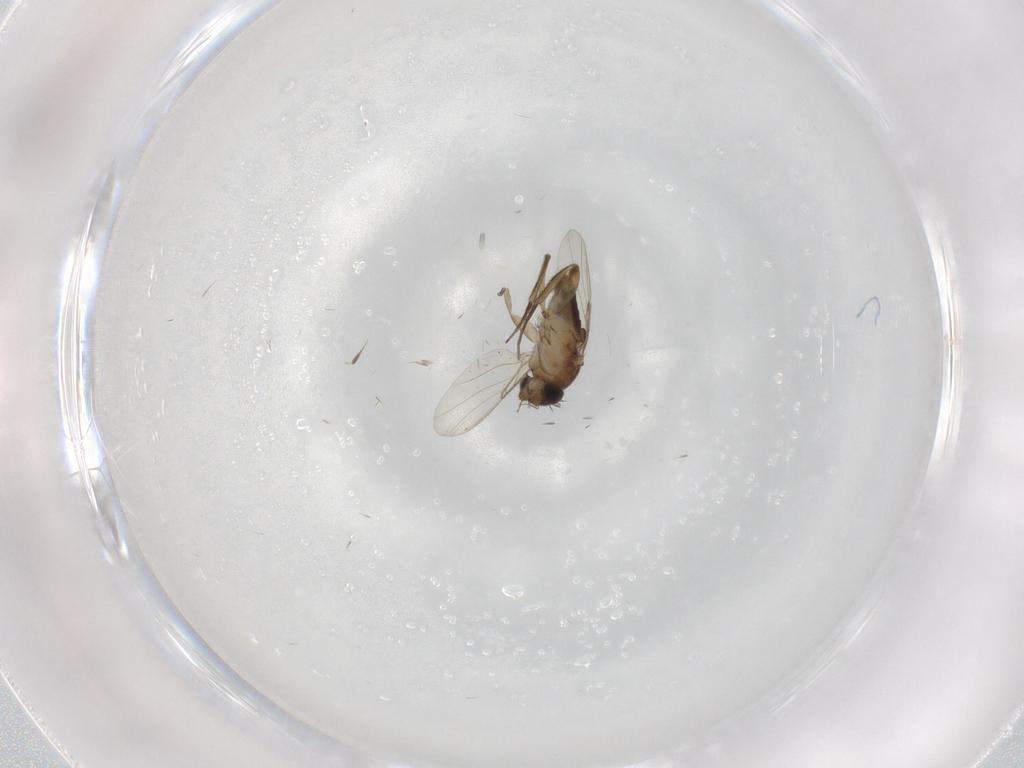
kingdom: Animalia
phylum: Arthropoda
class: Insecta
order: Diptera
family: Phoridae
